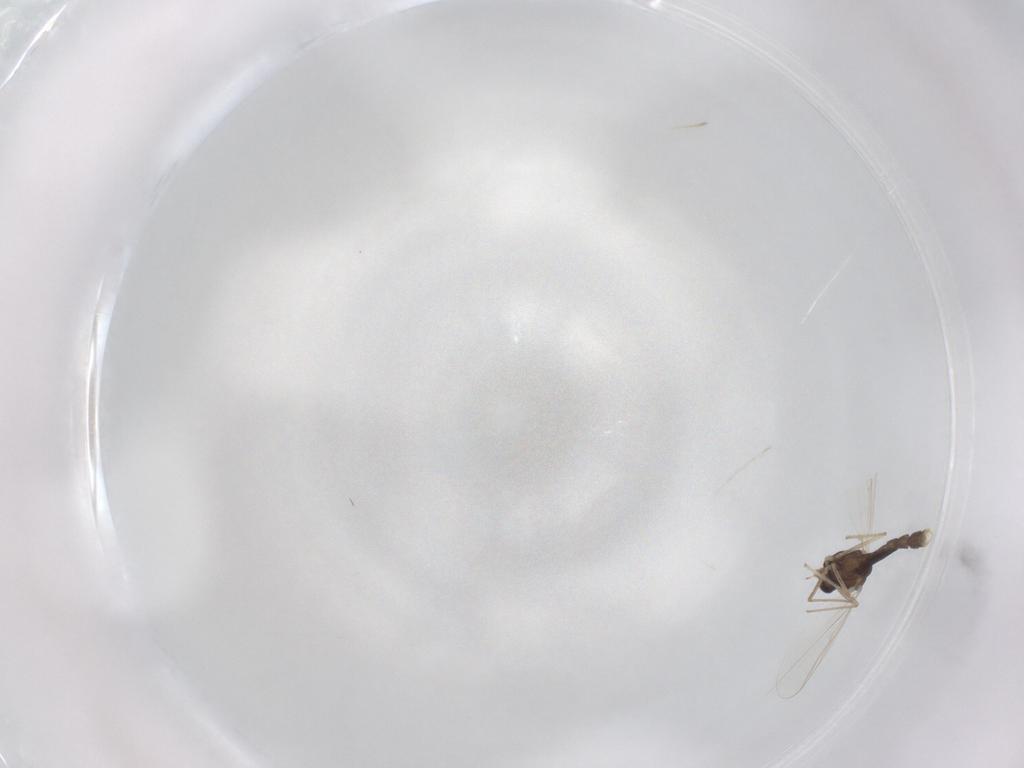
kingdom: Animalia
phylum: Arthropoda
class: Insecta
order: Diptera
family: Chironomidae
